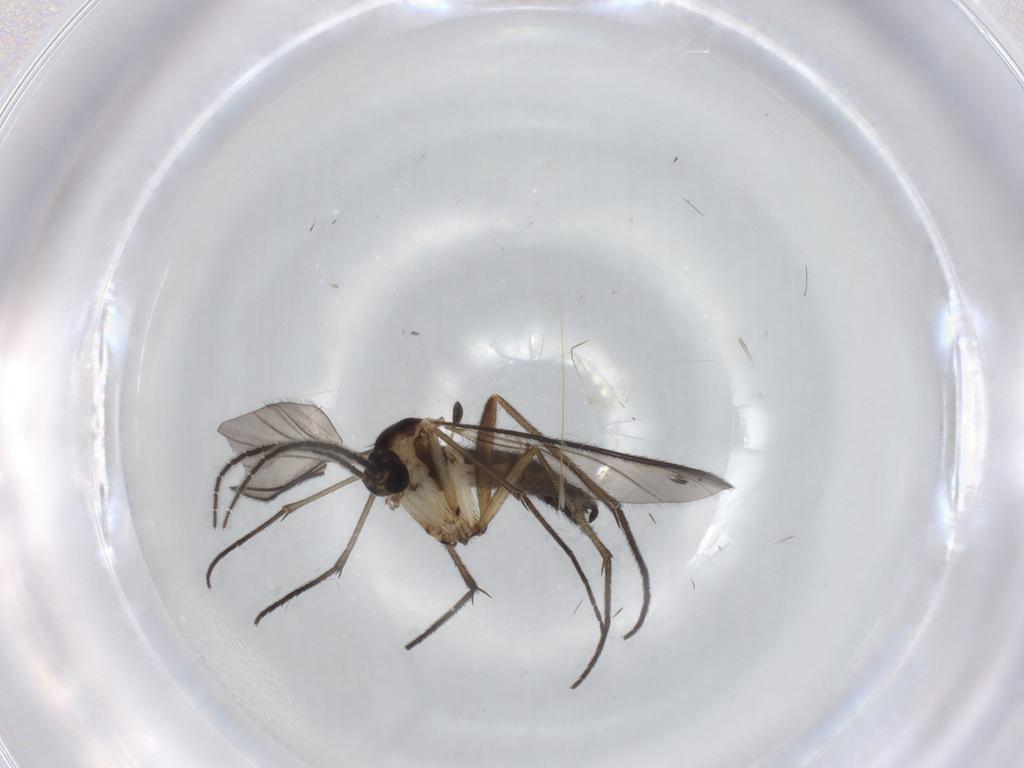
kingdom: Animalia
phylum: Arthropoda
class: Insecta
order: Diptera
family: Sciaridae
